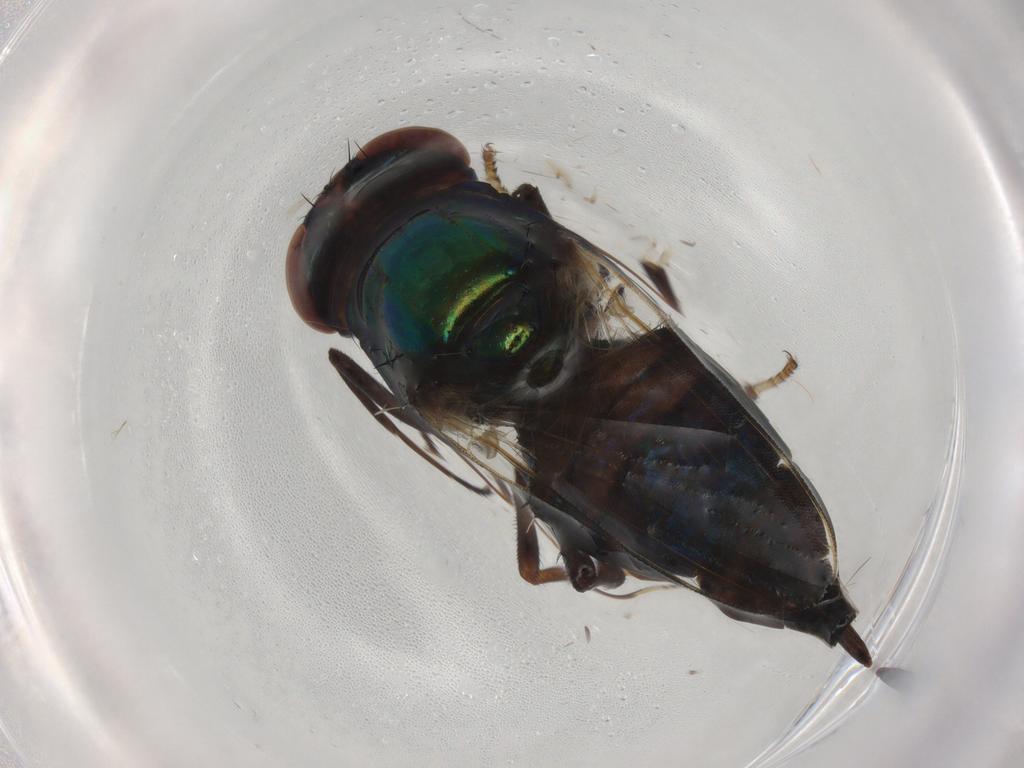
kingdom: Animalia
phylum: Arthropoda
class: Insecta
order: Diptera
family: Ulidiidae
